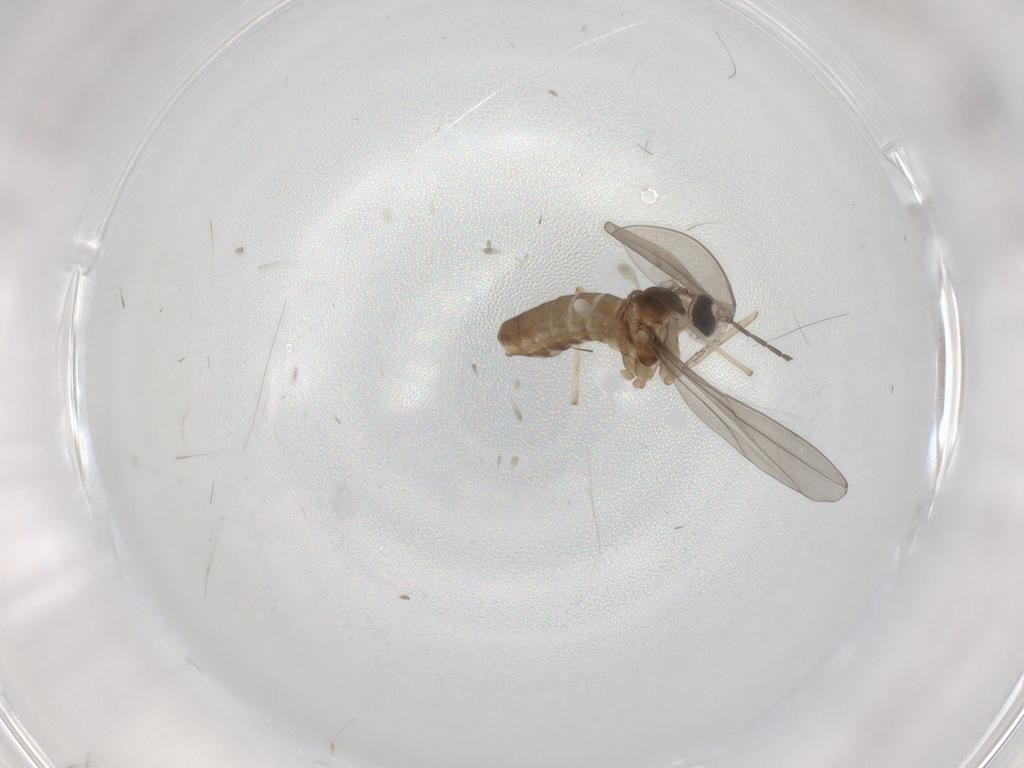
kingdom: Animalia
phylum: Arthropoda
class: Insecta
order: Diptera
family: Cecidomyiidae
